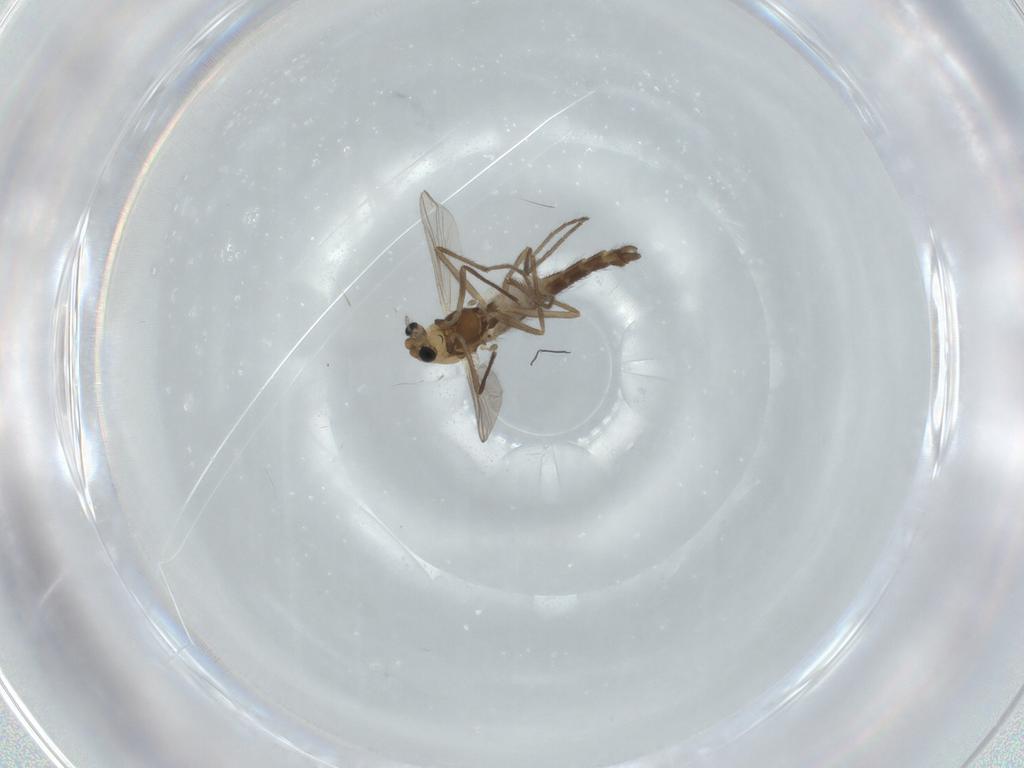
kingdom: Animalia
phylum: Arthropoda
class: Insecta
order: Diptera
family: Chironomidae
